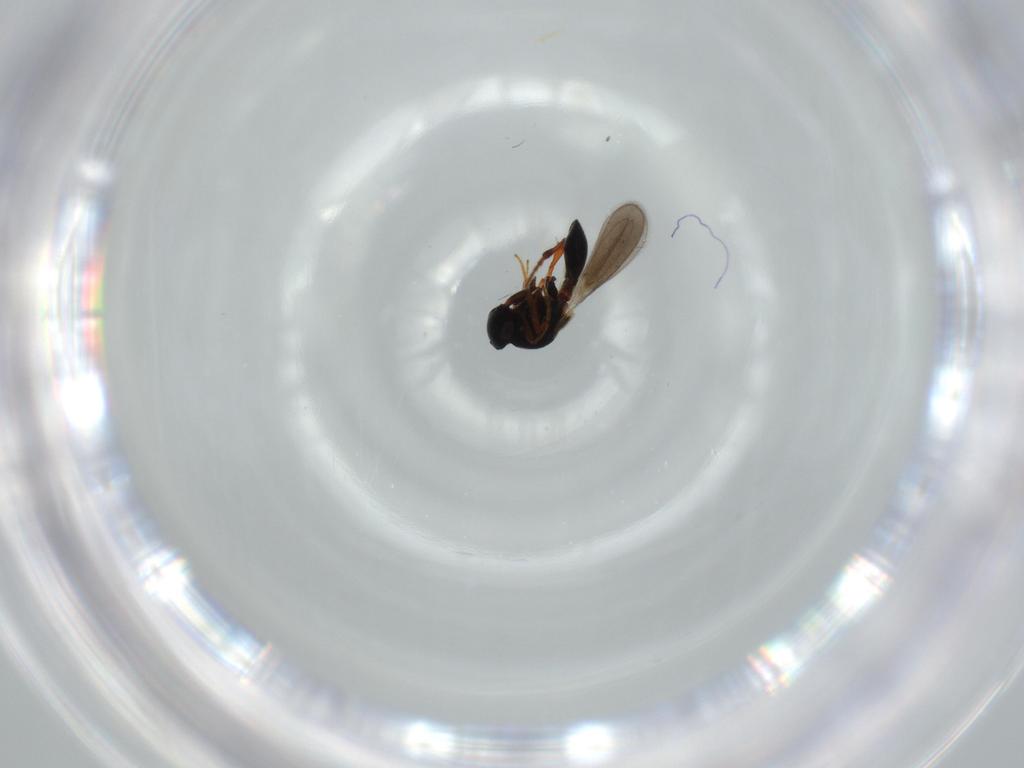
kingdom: Animalia
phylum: Arthropoda
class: Insecta
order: Hymenoptera
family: Platygastridae
